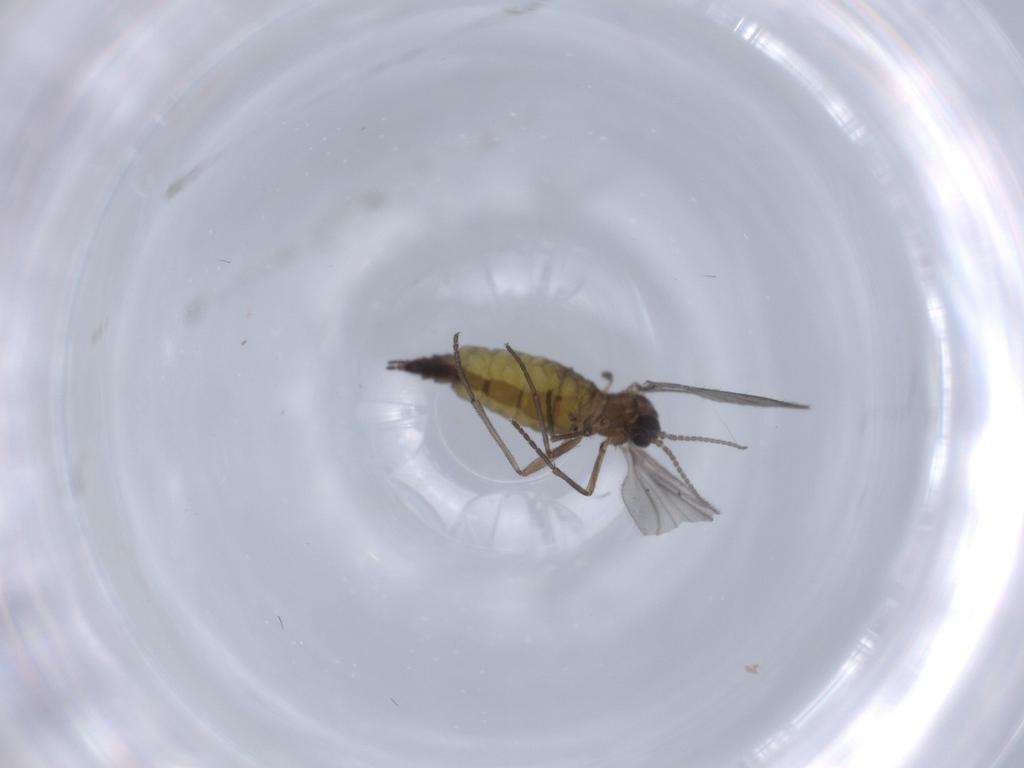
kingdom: Animalia
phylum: Arthropoda
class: Insecta
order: Diptera
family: Sciaridae
